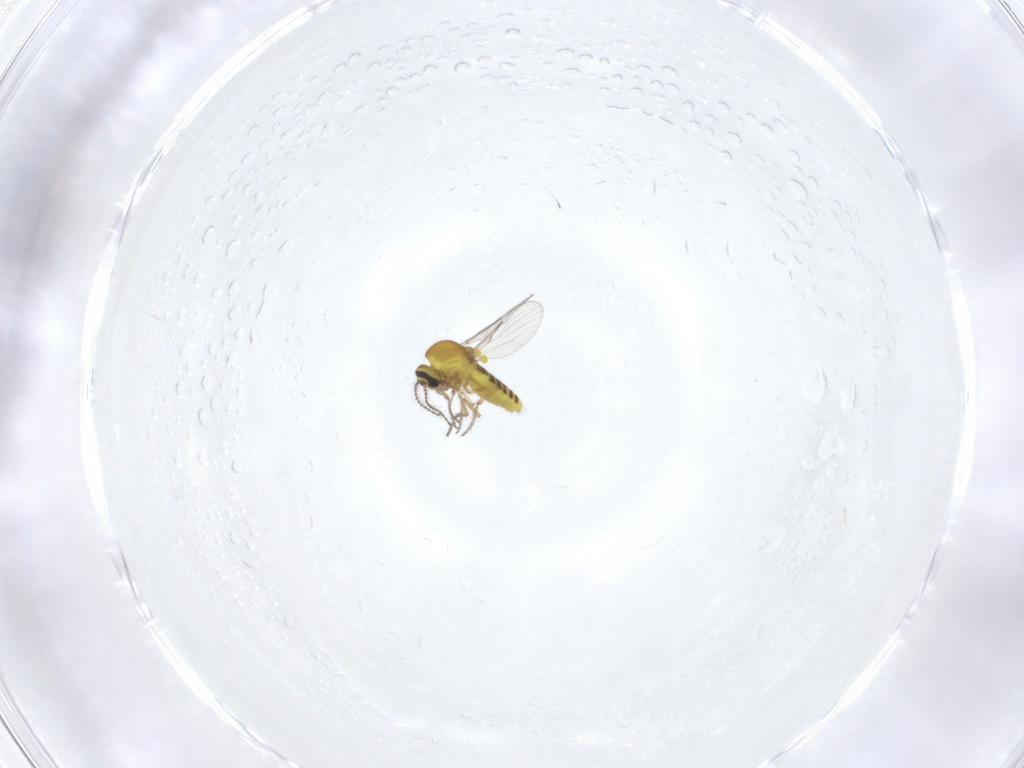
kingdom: Animalia
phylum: Arthropoda
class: Insecta
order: Diptera
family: Ceratopogonidae
